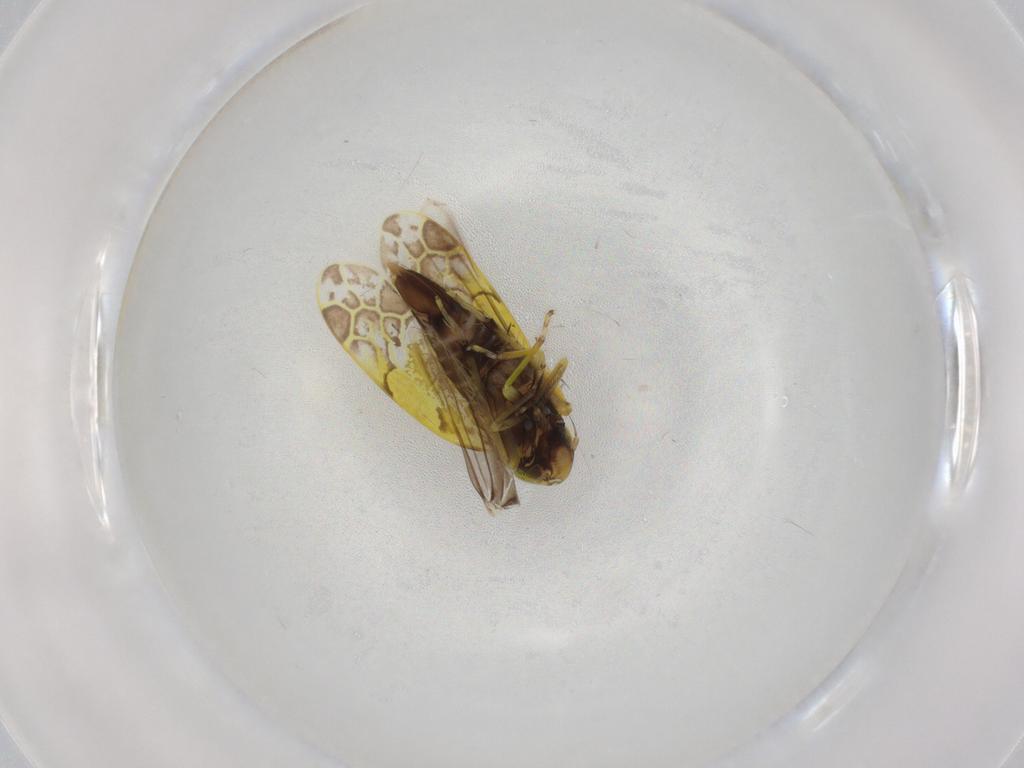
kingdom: Animalia
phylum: Arthropoda
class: Insecta
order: Hemiptera
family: Cicadellidae
